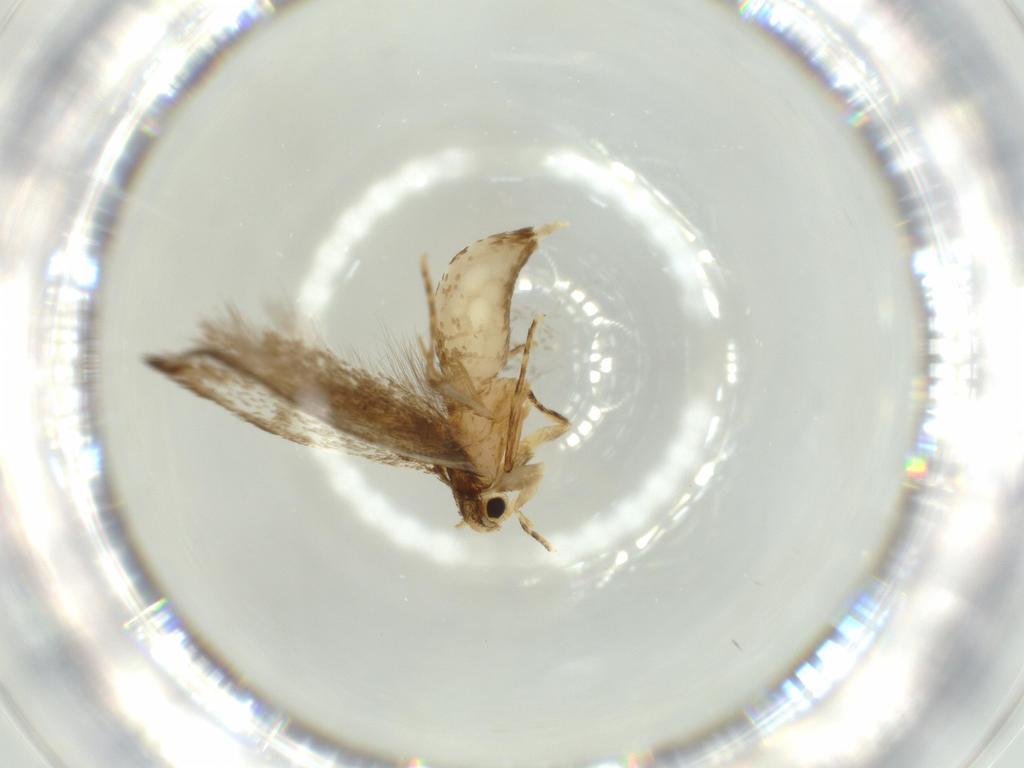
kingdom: Animalia
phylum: Arthropoda
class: Insecta
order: Lepidoptera
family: Tineidae
